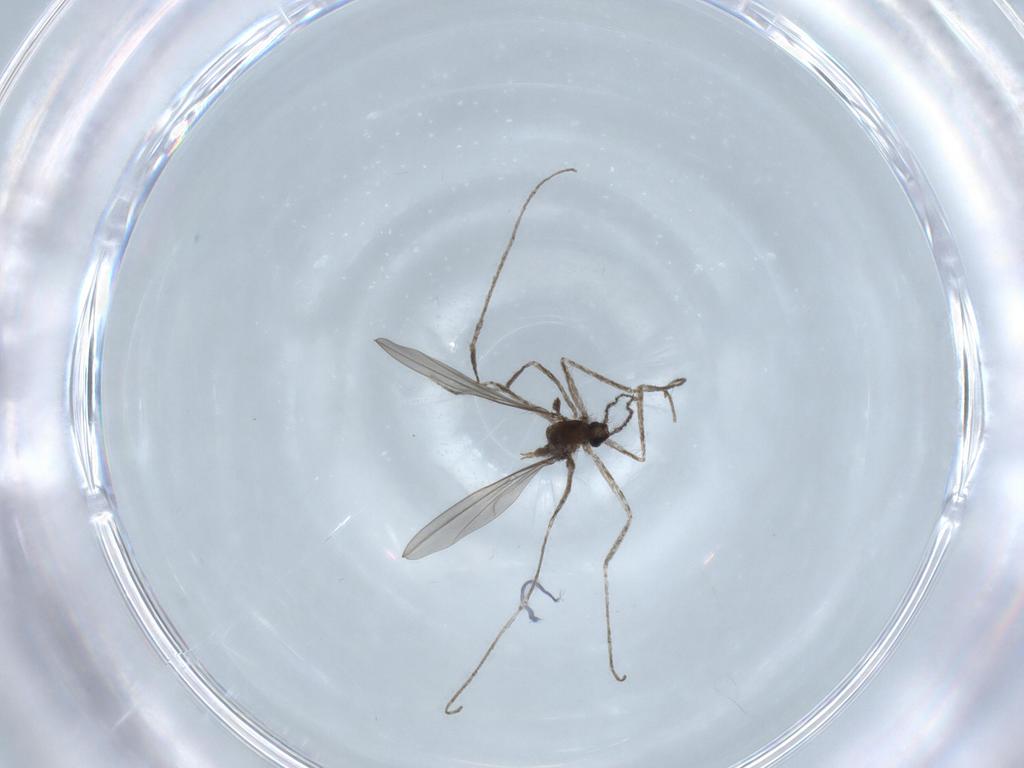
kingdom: Animalia
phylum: Arthropoda
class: Insecta
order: Diptera
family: Cecidomyiidae
